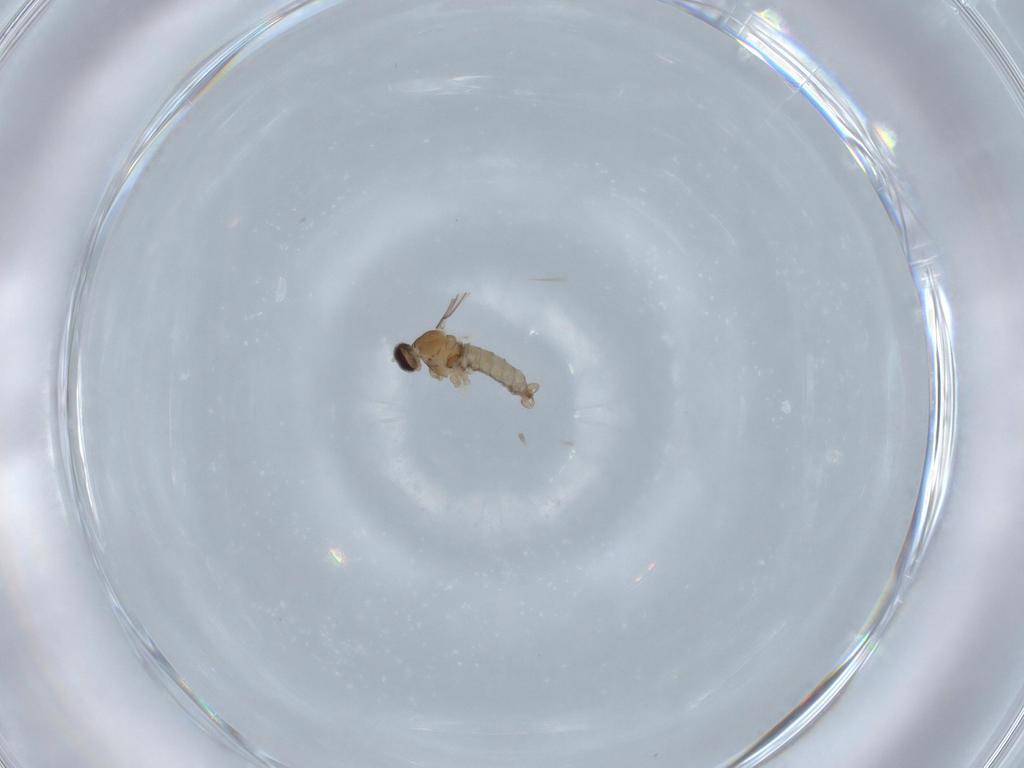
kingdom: Animalia
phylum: Arthropoda
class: Insecta
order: Diptera
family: Cecidomyiidae
